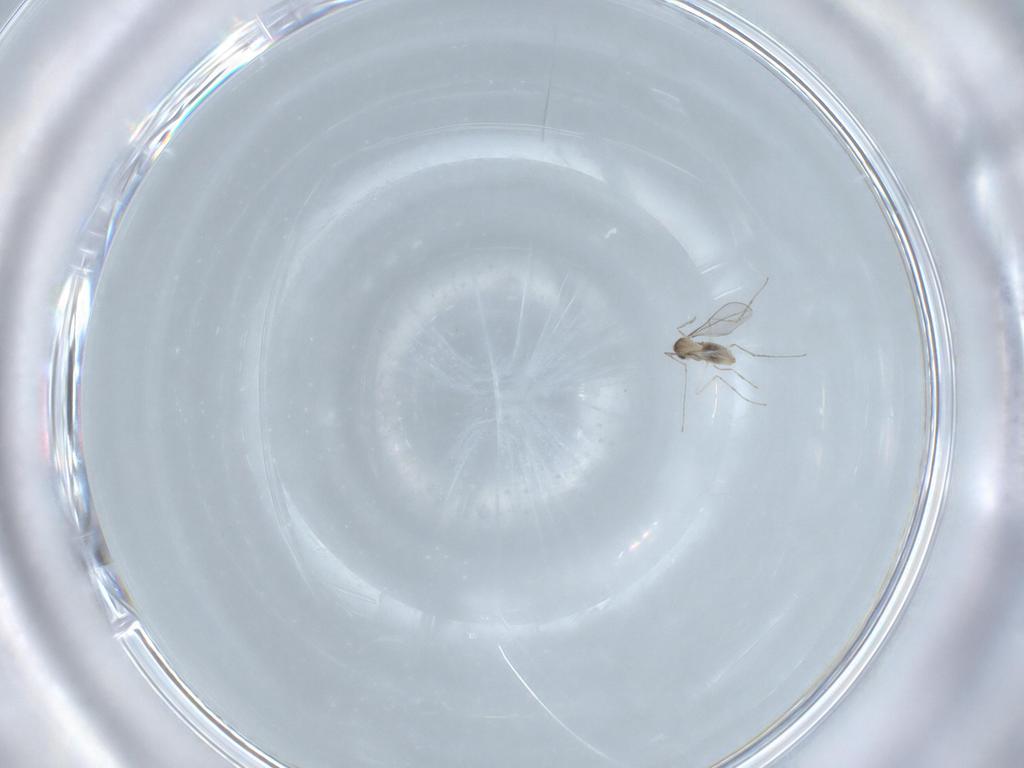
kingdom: Animalia
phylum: Arthropoda
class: Insecta
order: Diptera
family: Cecidomyiidae
